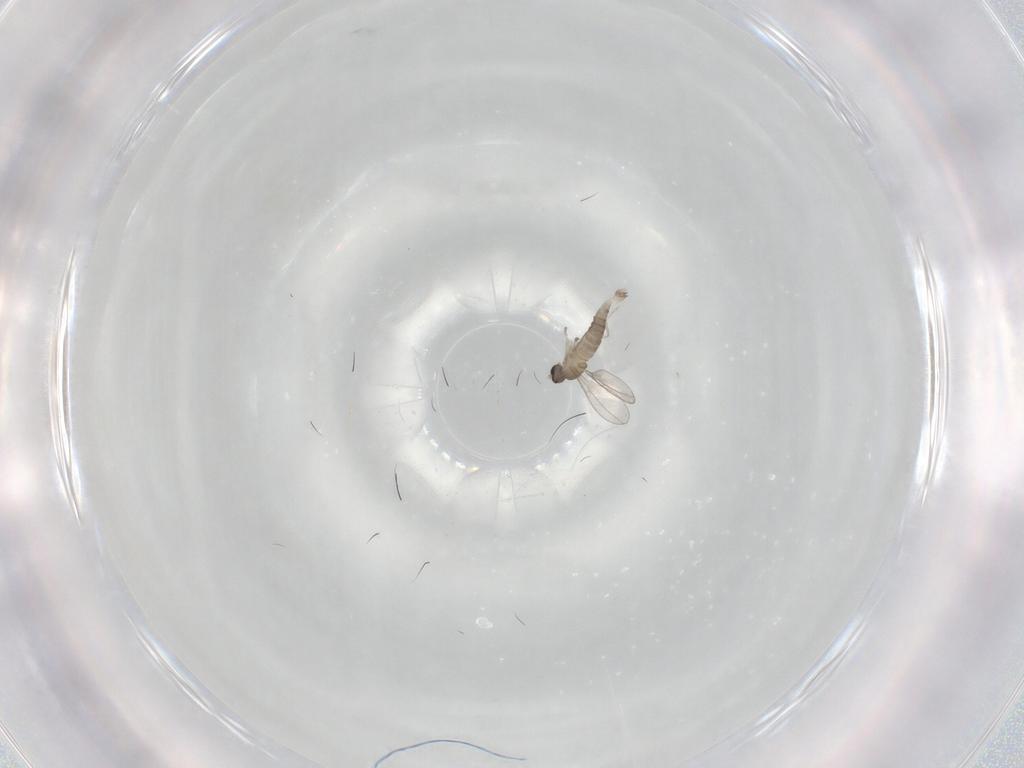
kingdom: Animalia
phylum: Arthropoda
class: Insecta
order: Diptera
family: Cecidomyiidae
